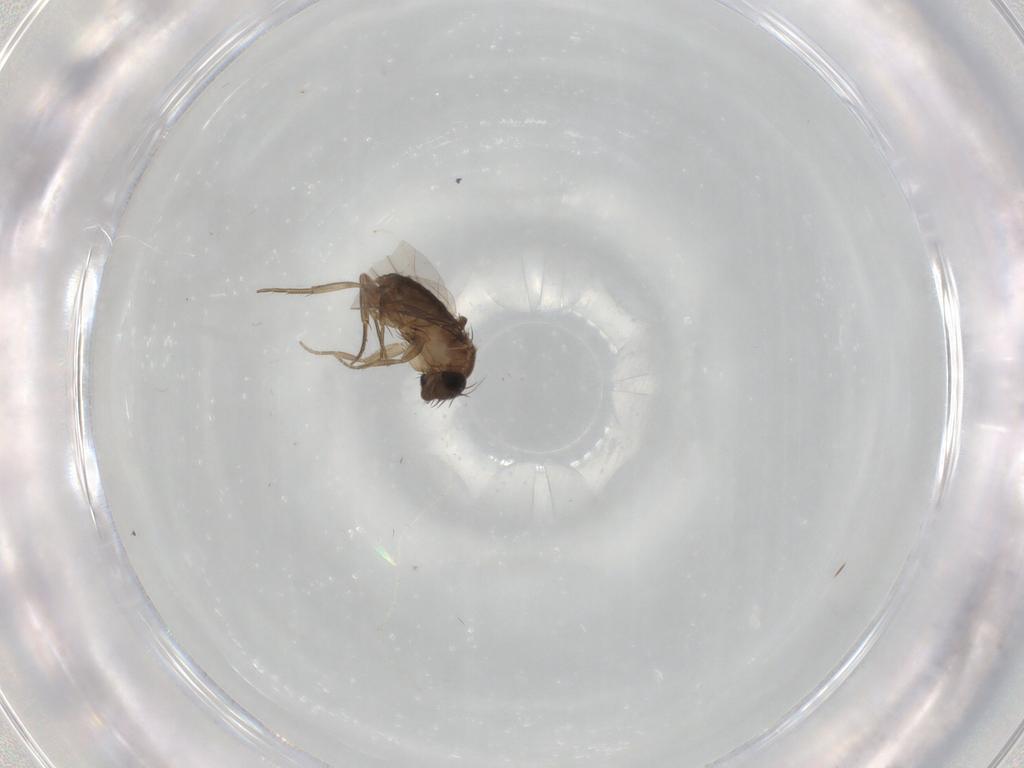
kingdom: Animalia
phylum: Arthropoda
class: Insecta
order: Diptera
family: Phoridae
